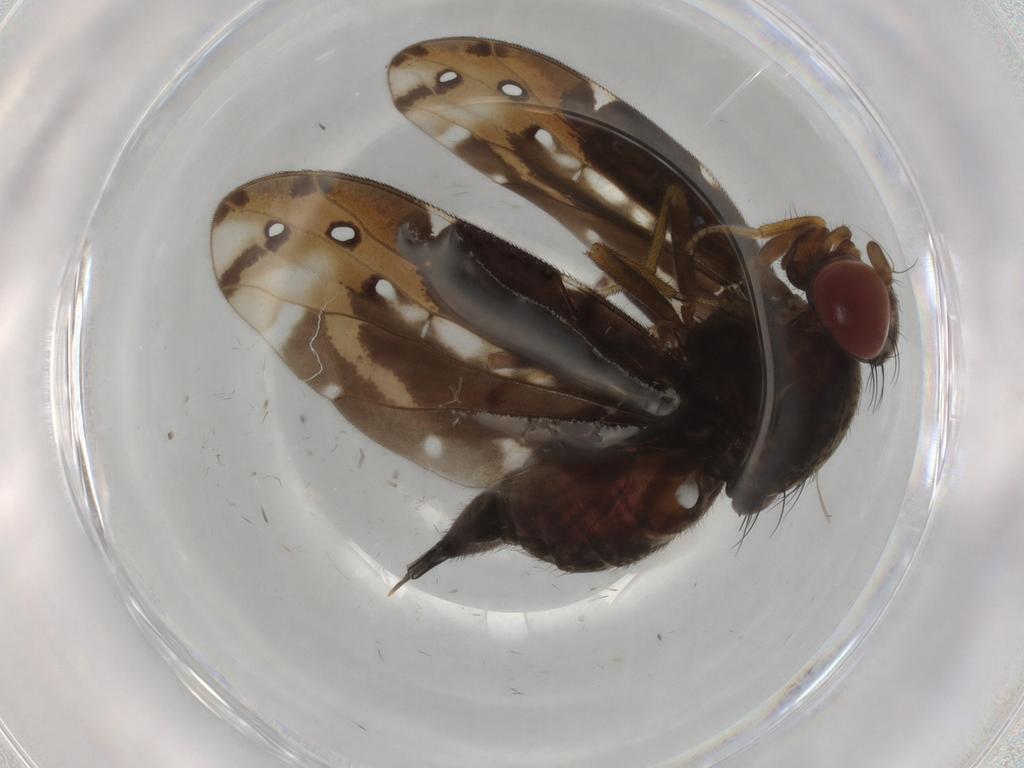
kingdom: Animalia
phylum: Arthropoda
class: Insecta
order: Diptera
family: Ulidiidae
